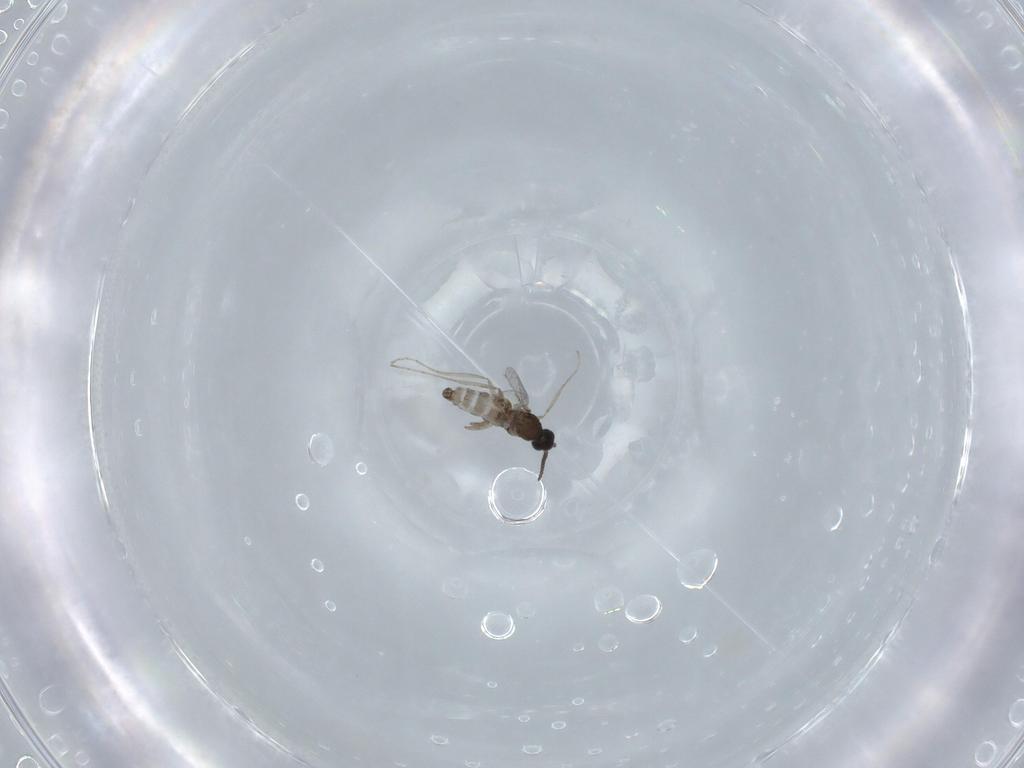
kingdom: Animalia
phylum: Arthropoda
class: Insecta
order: Diptera
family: Cecidomyiidae
